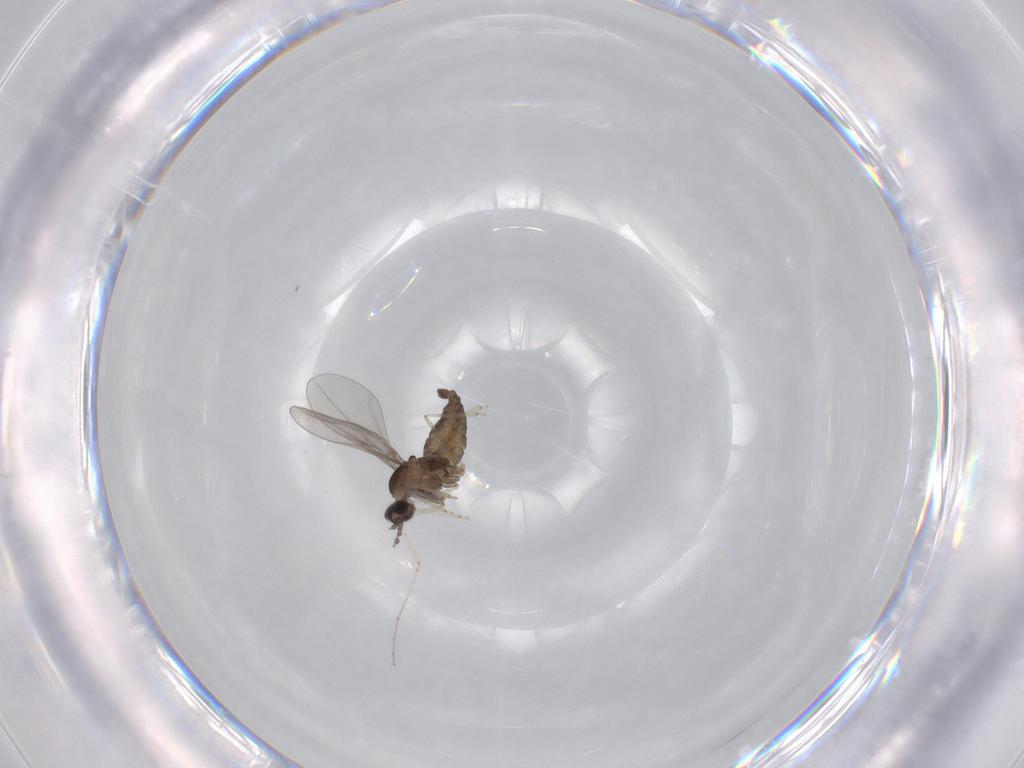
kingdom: Animalia
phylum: Arthropoda
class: Insecta
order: Diptera
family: Chironomidae
